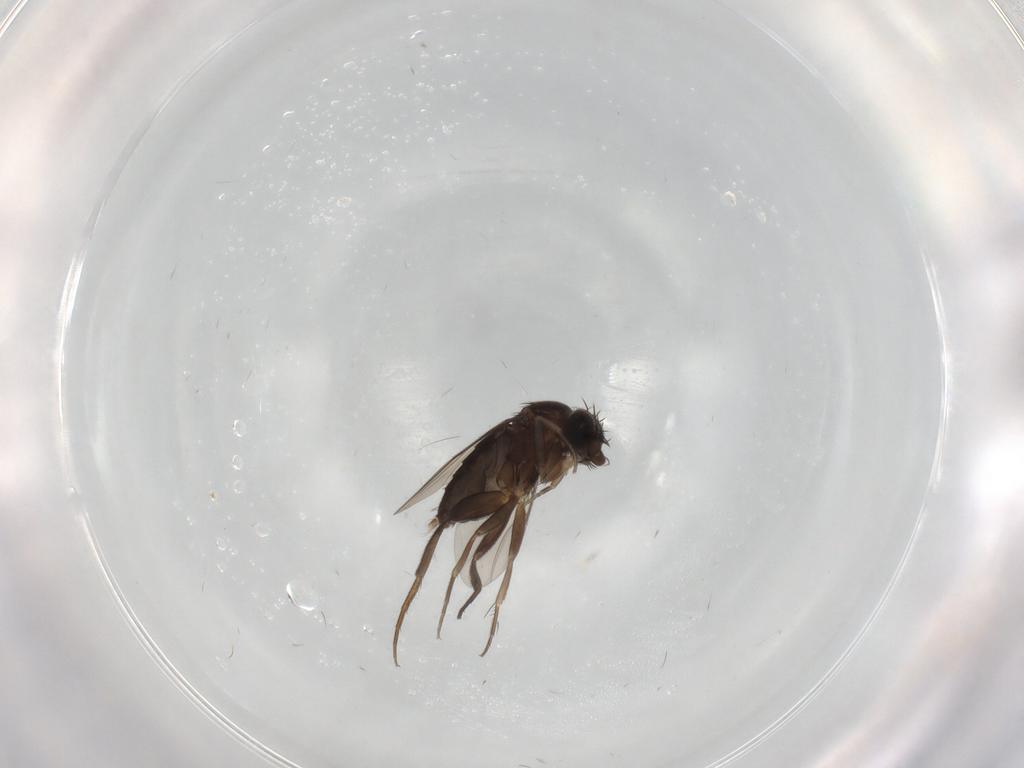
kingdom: Animalia
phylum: Arthropoda
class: Insecta
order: Diptera
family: Phoridae
